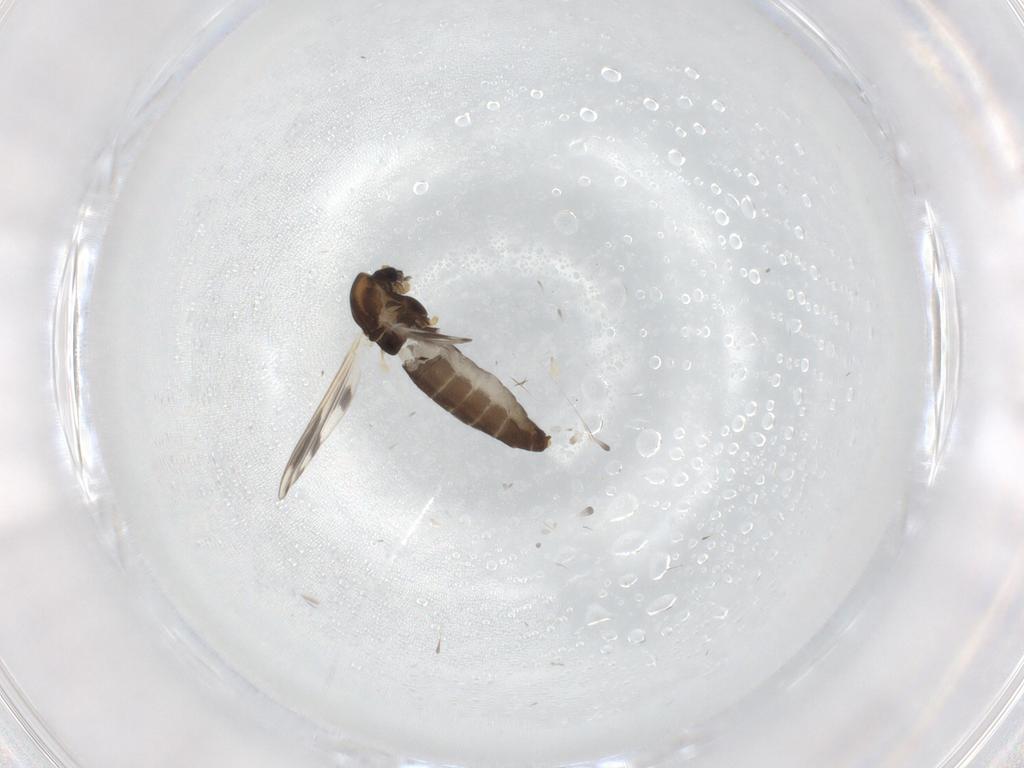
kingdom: Animalia
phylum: Arthropoda
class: Insecta
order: Diptera
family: Chironomidae
